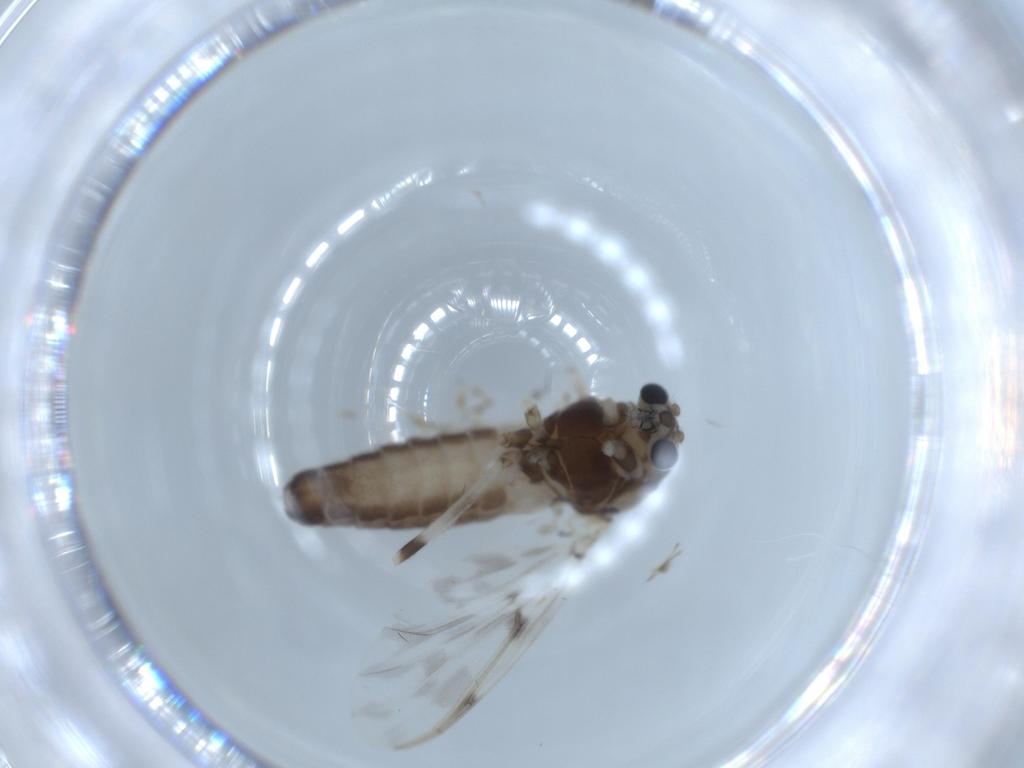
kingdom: Animalia
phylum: Arthropoda
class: Insecta
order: Diptera
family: Chironomidae
